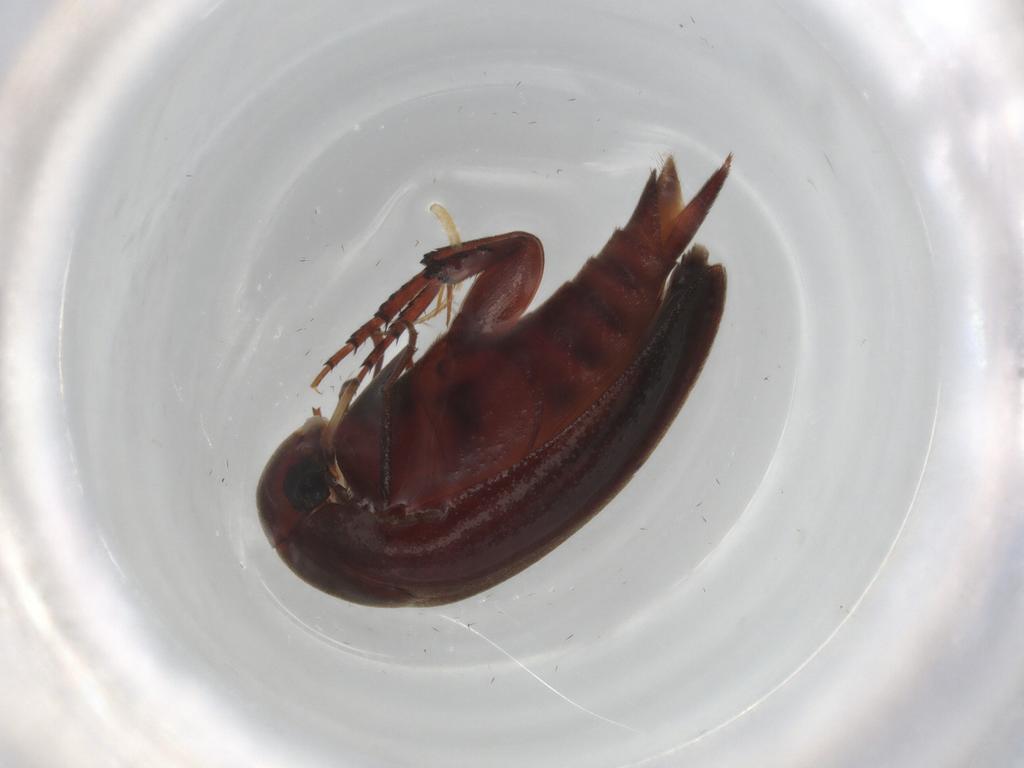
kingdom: Animalia
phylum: Arthropoda
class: Insecta
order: Coleoptera
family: Mordellidae
